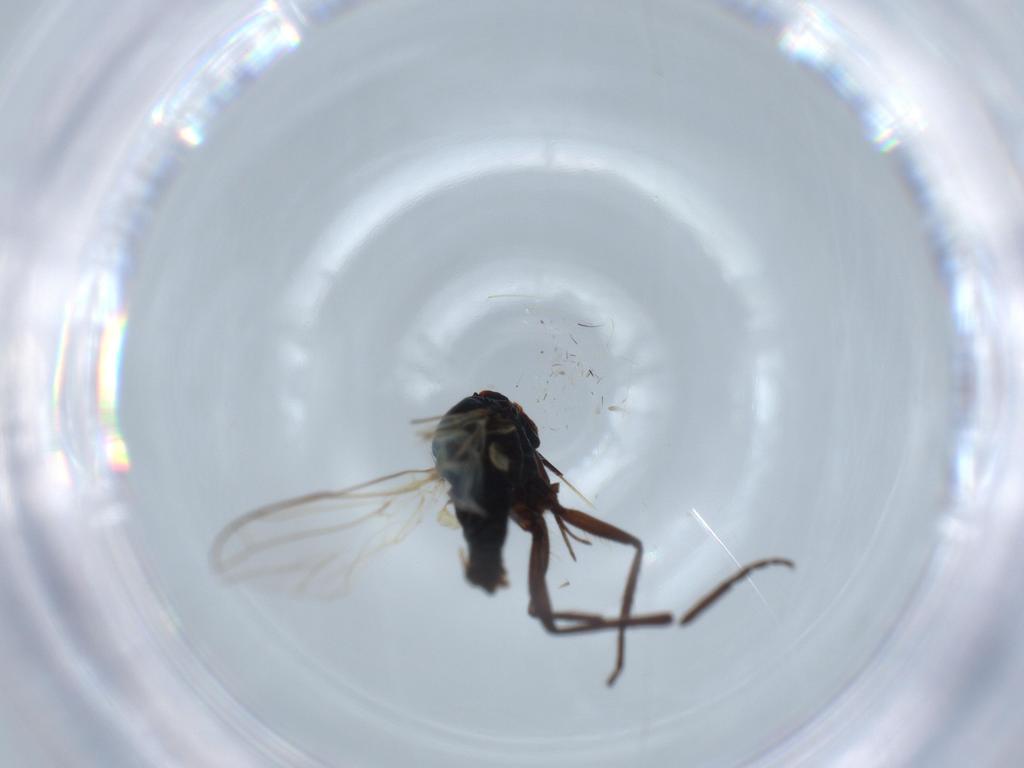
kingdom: Animalia
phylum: Arthropoda
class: Insecta
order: Diptera
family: Empididae
